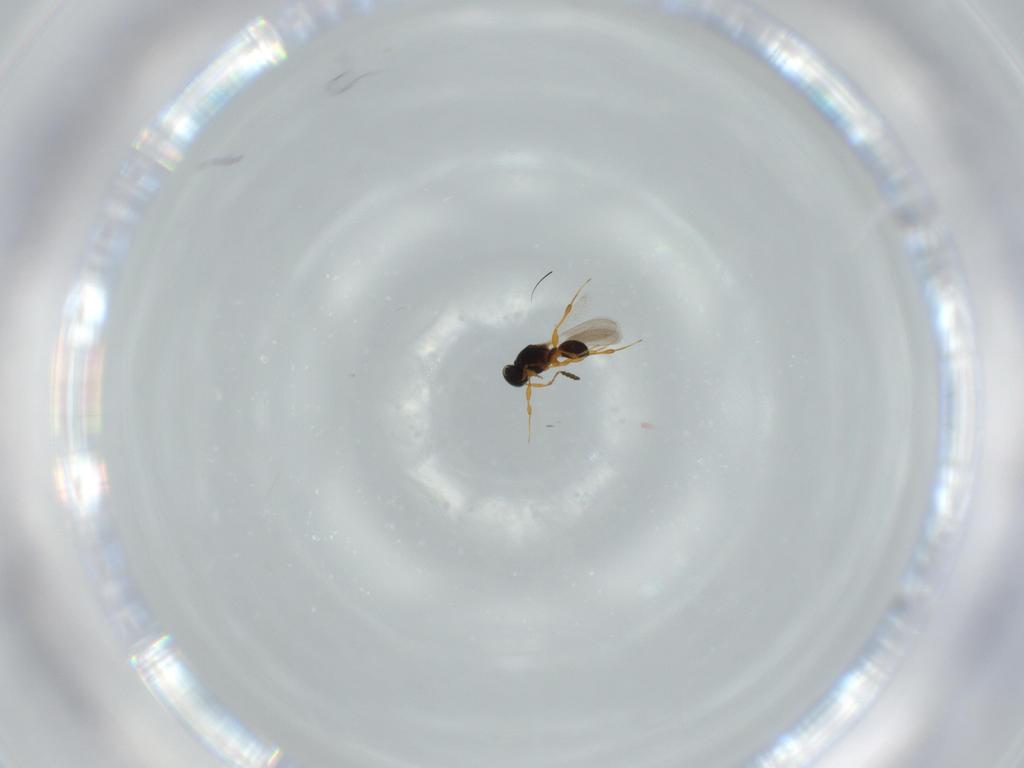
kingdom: Animalia
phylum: Arthropoda
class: Insecta
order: Hymenoptera
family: Platygastridae
